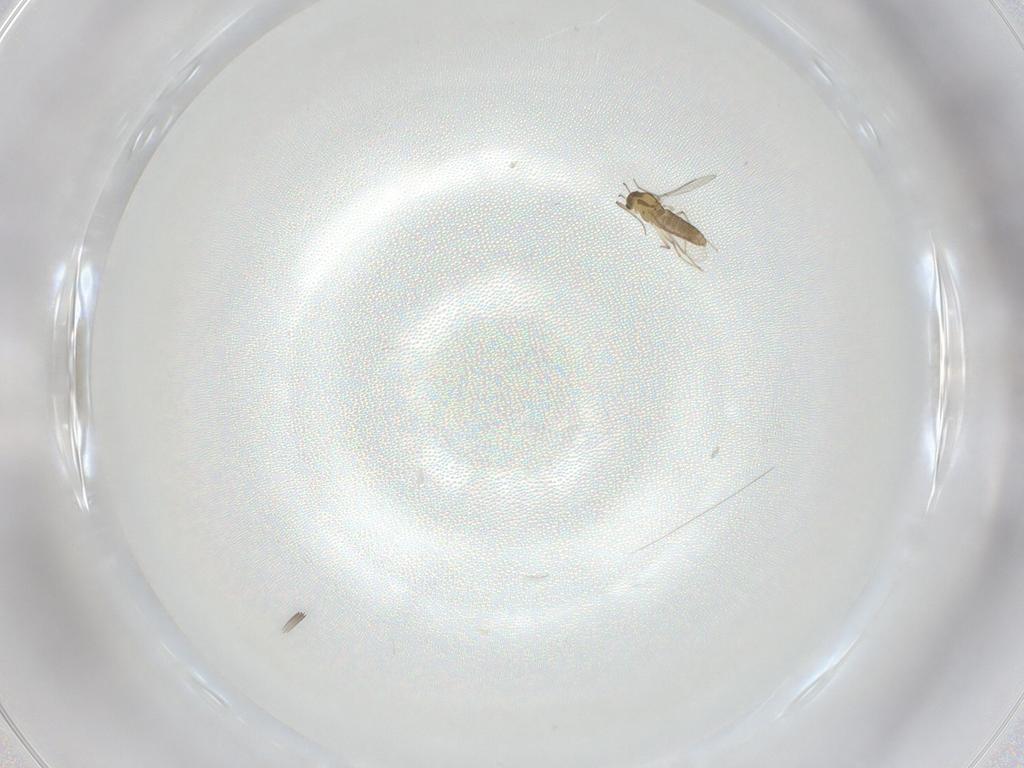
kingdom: Animalia
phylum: Arthropoda
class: Insecta
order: Diptera
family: Chironomidae
